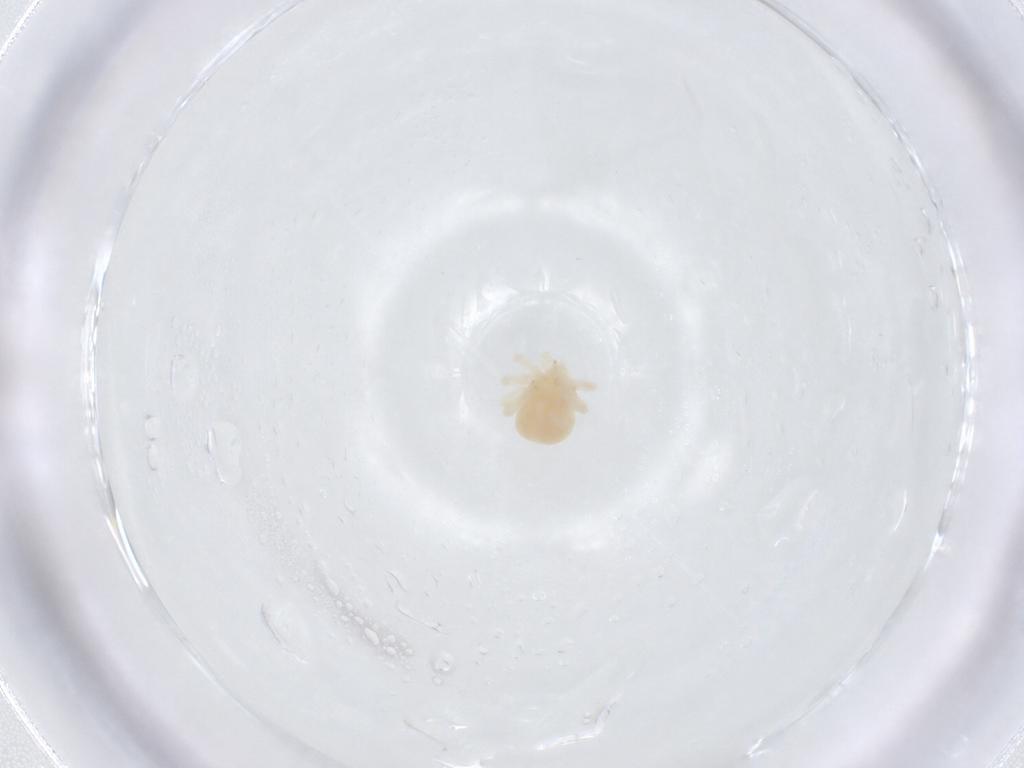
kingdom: Animalia
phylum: Arthropoda
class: Arachnida
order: Trombidiformes
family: Anystidae
